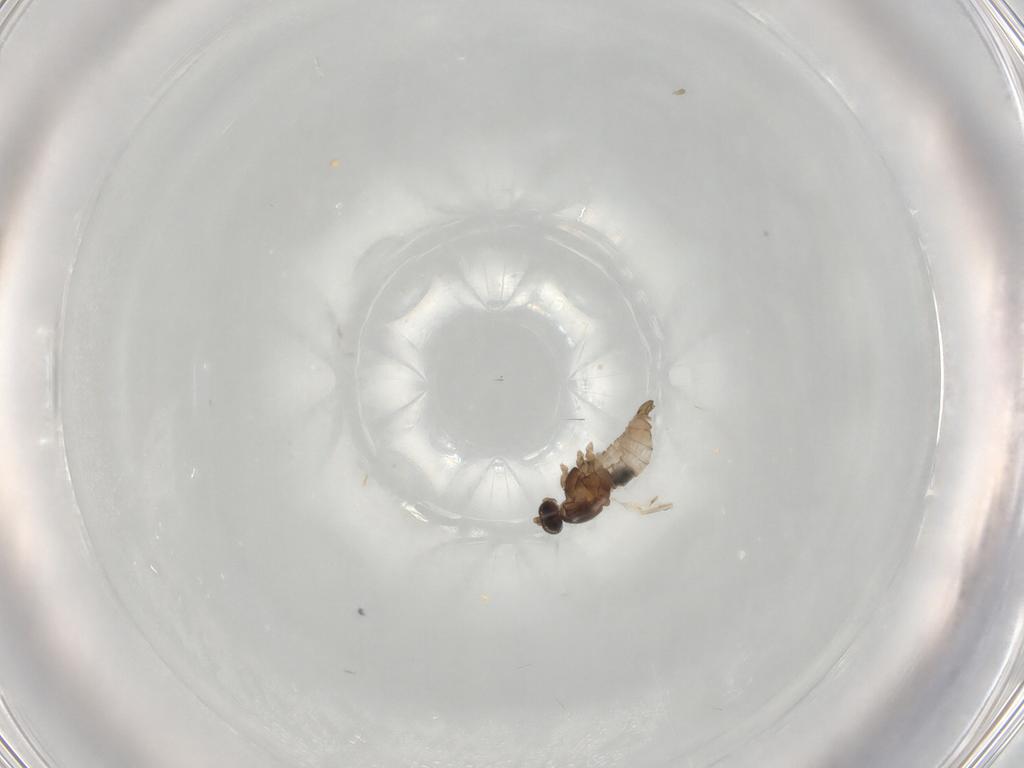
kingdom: Animalia
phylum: Arthropoda
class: Insecta
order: Diptera
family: Cecidomyiidae
